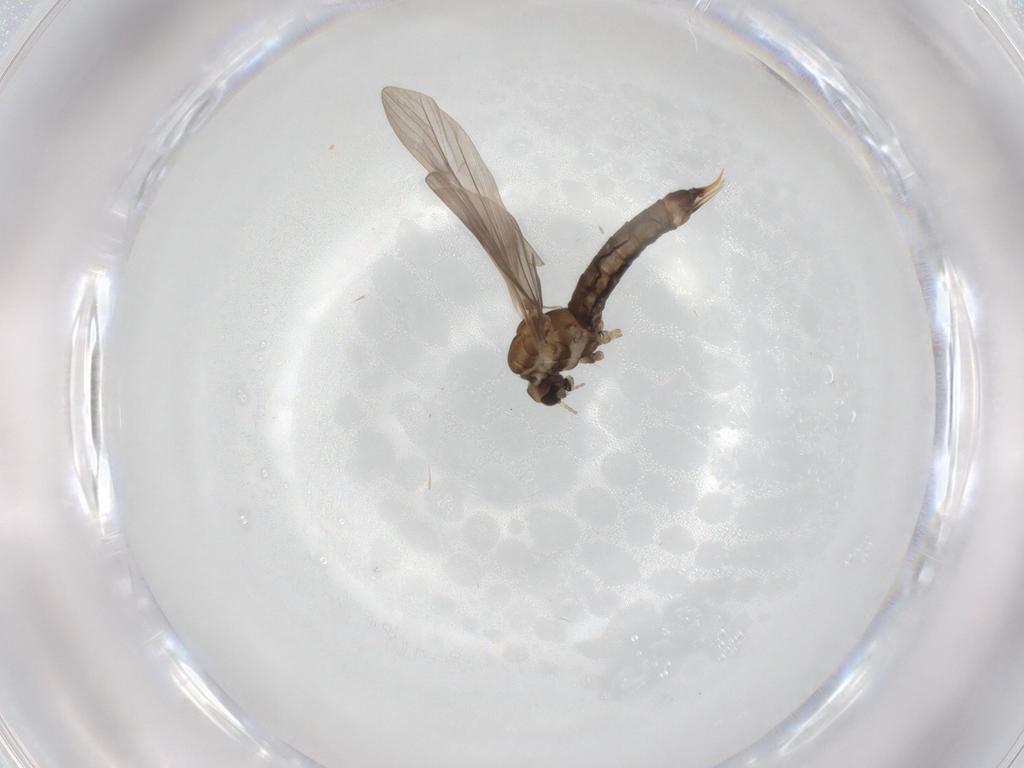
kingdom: Animalia
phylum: Arthropoda
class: Insecta
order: Diptera
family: Limoniidae
